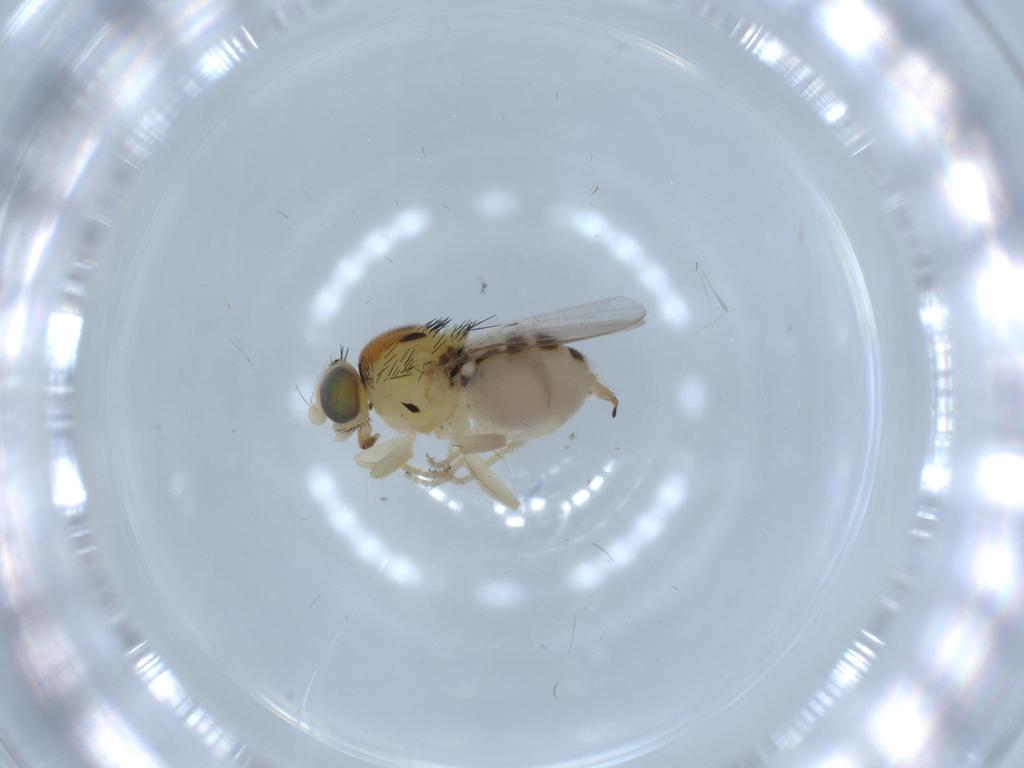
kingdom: Animalia
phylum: Arthropoda
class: Insecta
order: Diptera
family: Chloropidae
